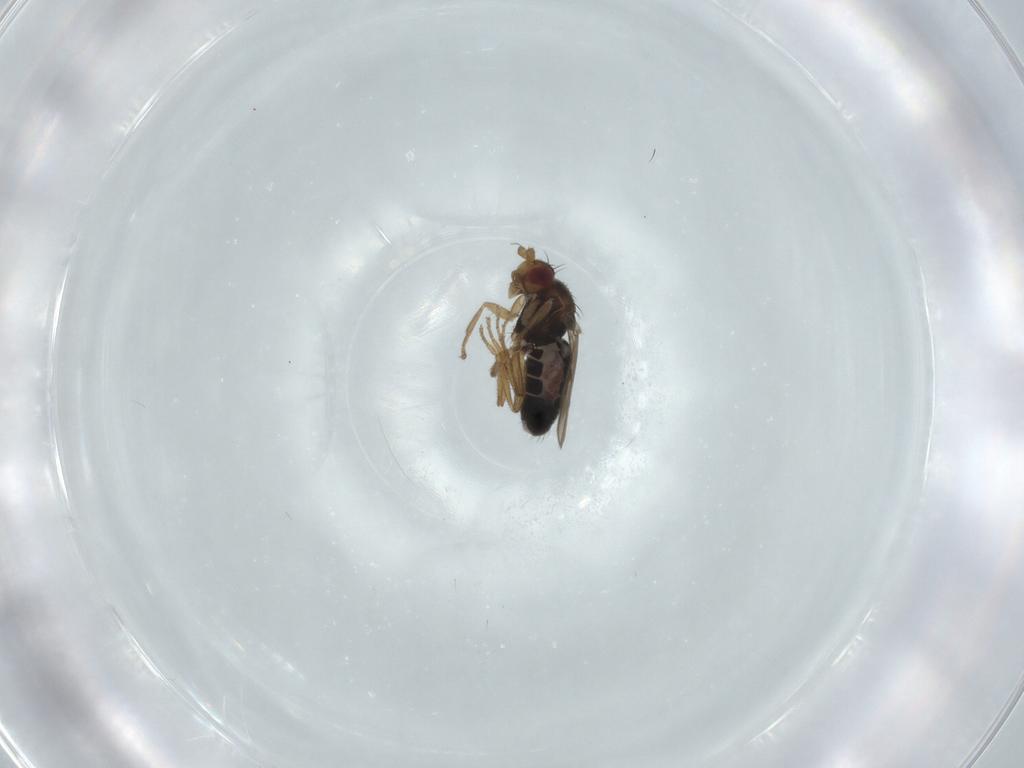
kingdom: Animalia
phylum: Arthropoda
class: Insecta
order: Diptera
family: Sphaeroceridae
